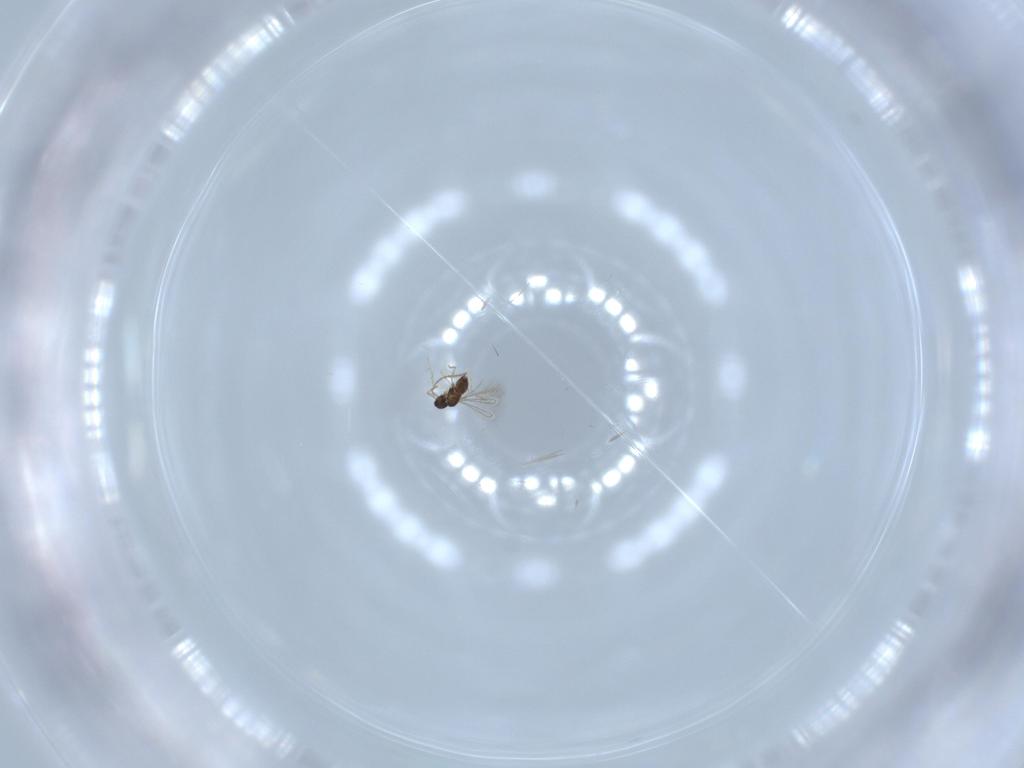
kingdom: Animalia
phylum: Arthropoda
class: Insecta
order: Hymenoptera
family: Mymaridae
